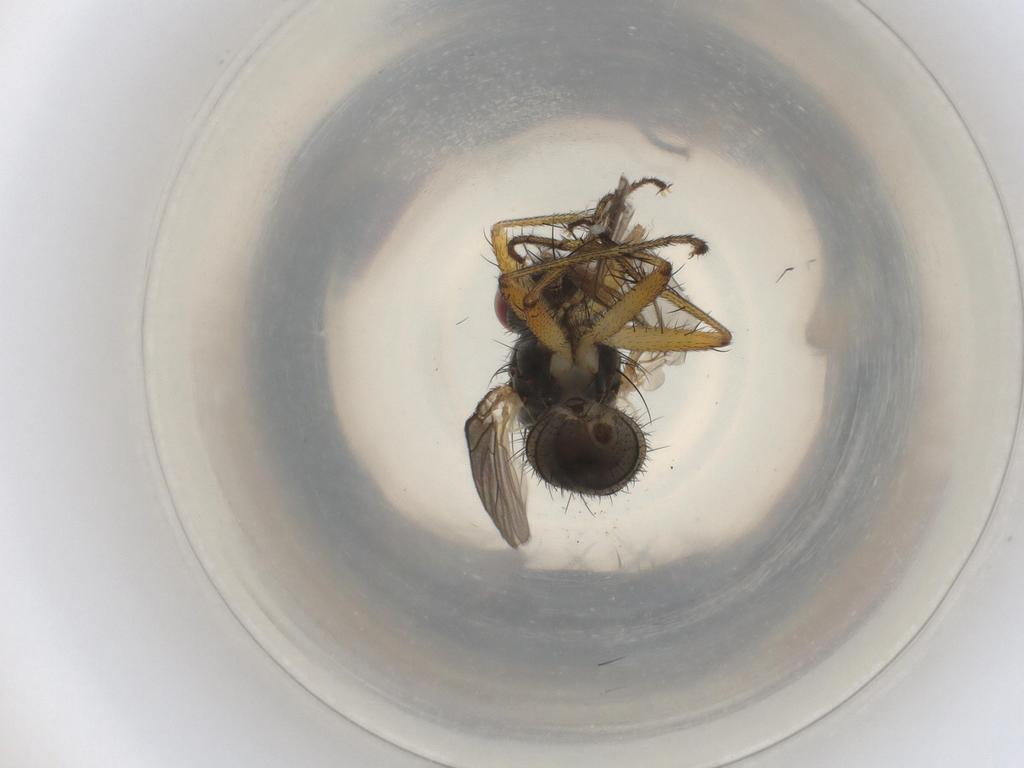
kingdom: Animalia
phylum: Arthropoda
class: Insecta
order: Diptera
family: Muscidae
